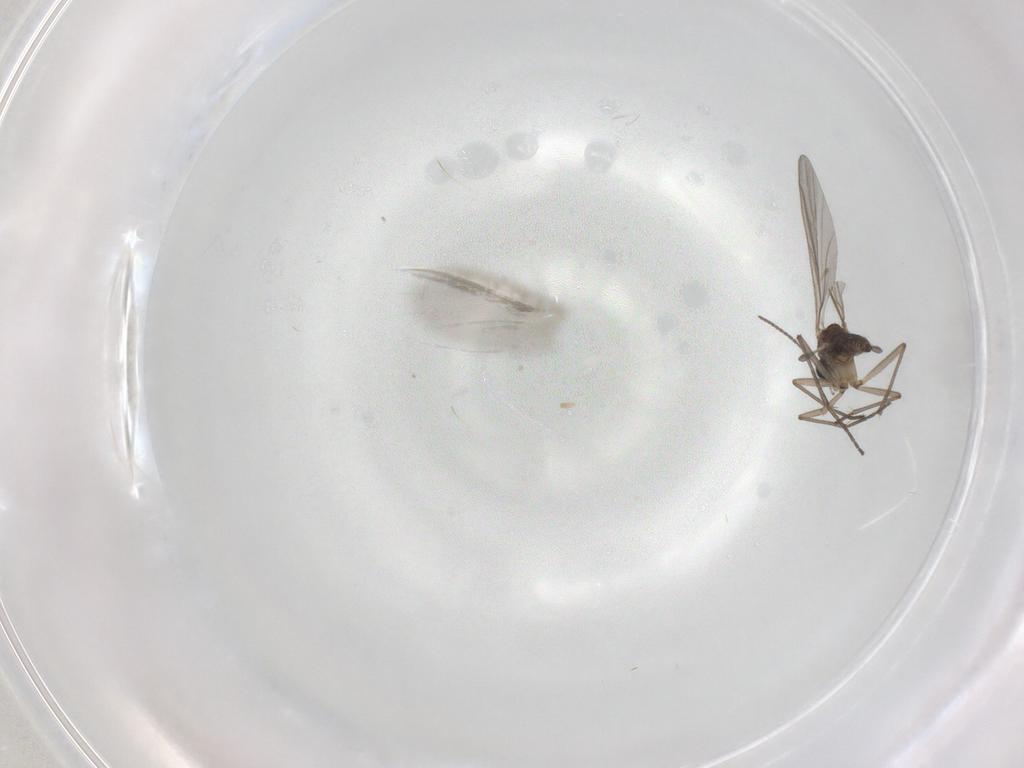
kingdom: Animalia
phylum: Arthropoda
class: Insecta
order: Diptera
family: Sciaridae
